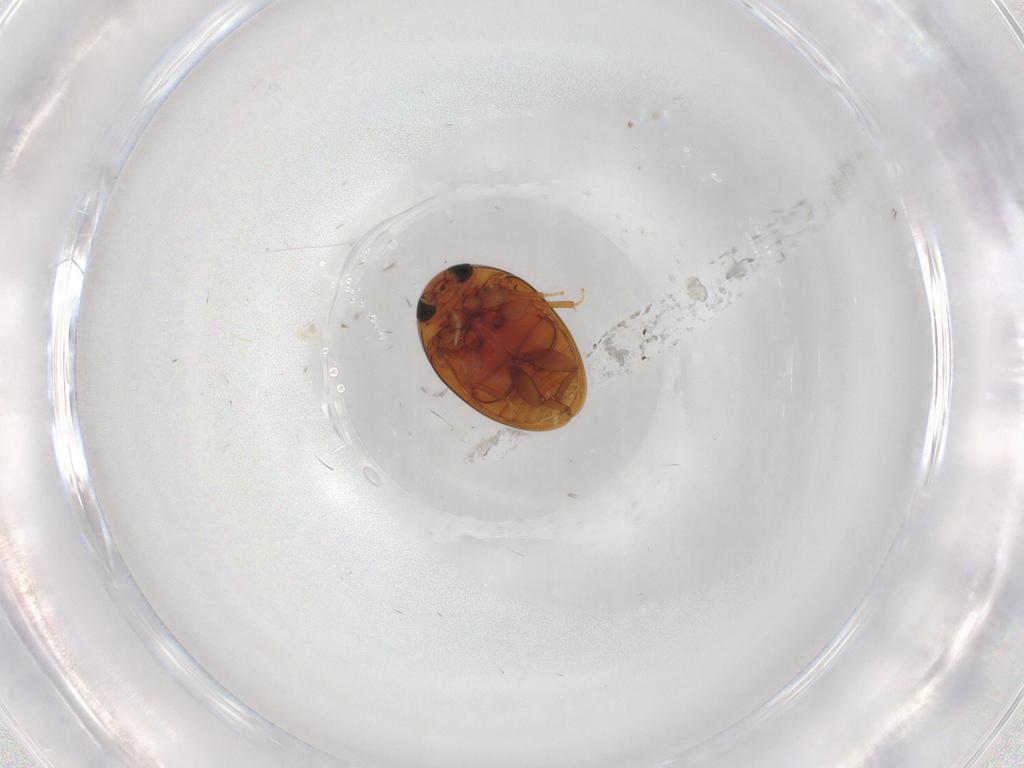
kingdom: Animalia
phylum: Arthropoda
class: Insecta
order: Coleoptera
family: Phalacridae
